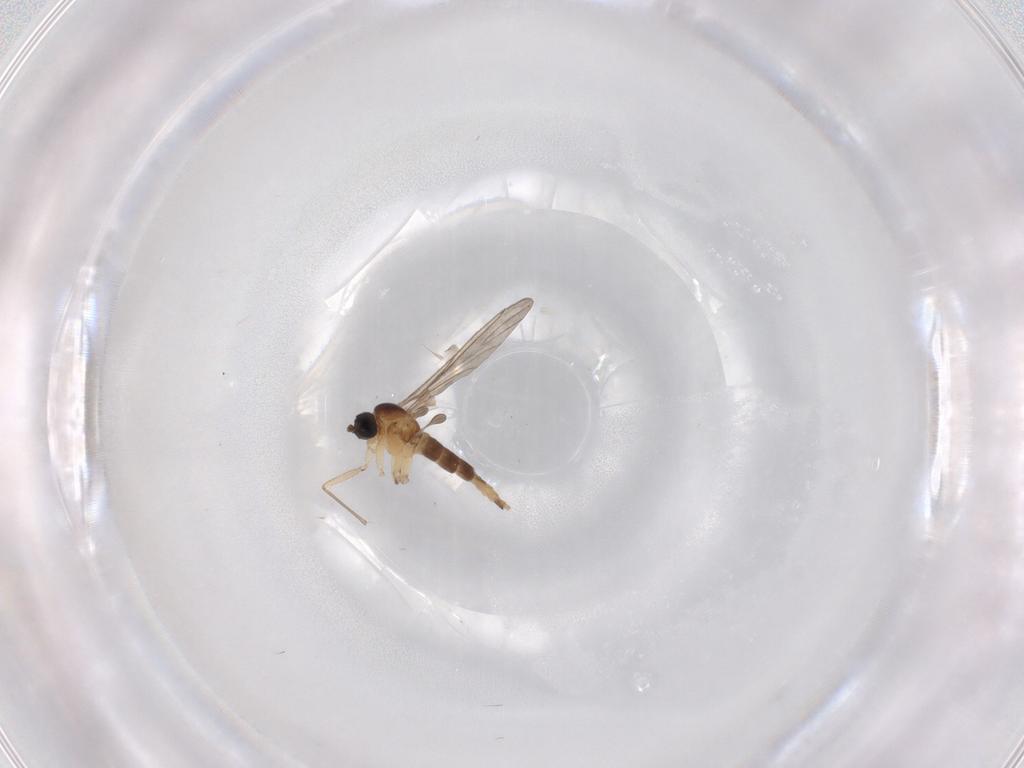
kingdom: Animalia
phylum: Arthropoda
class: Insecta
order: Diptera
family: Sciaridae
